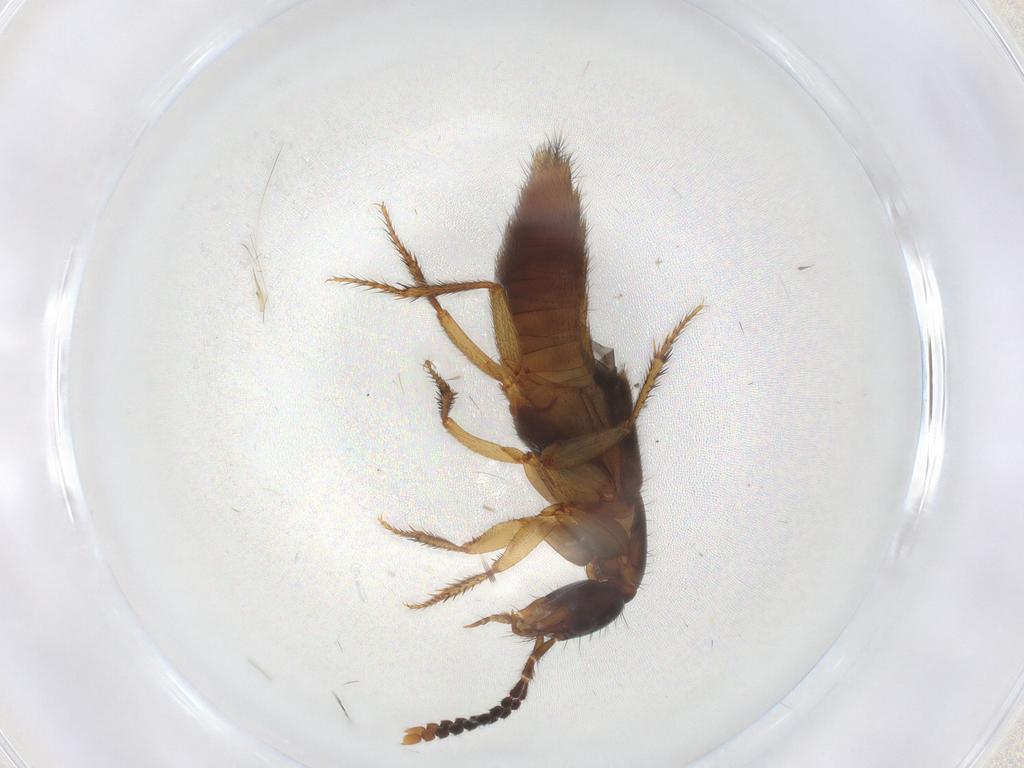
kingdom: Animalia
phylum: Arthropoda
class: Insecta
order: Coleoptera
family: Staphylinidae
